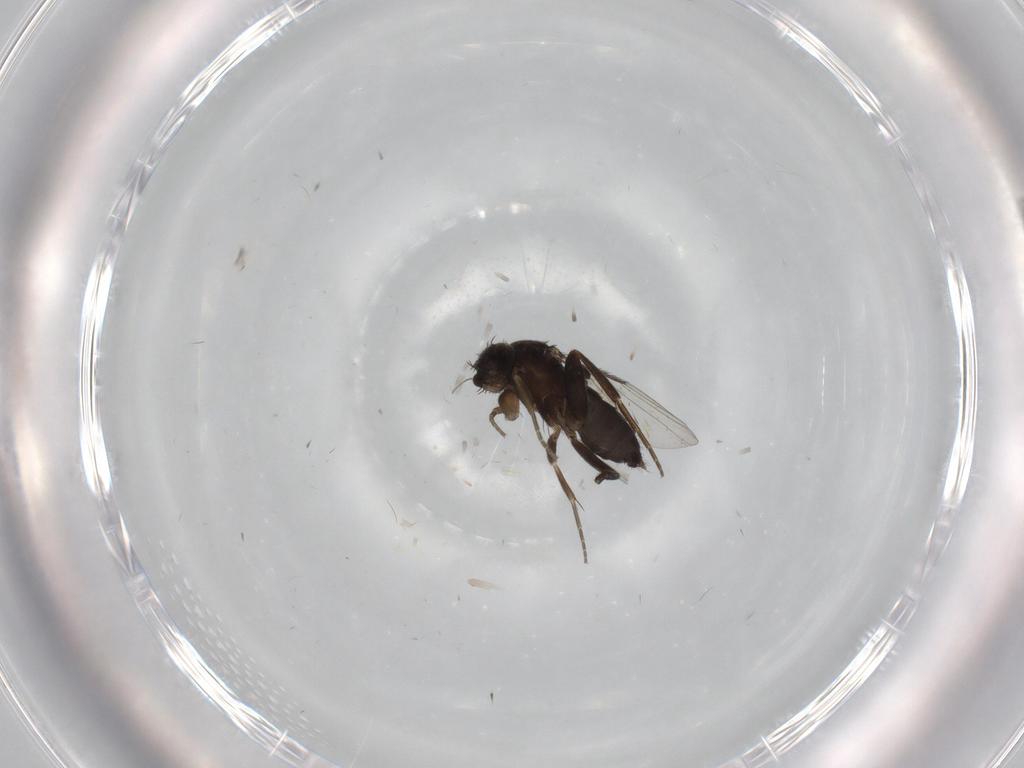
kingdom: Animalia
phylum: Arthropoda
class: Insecta
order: Diptera
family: Phoridae
